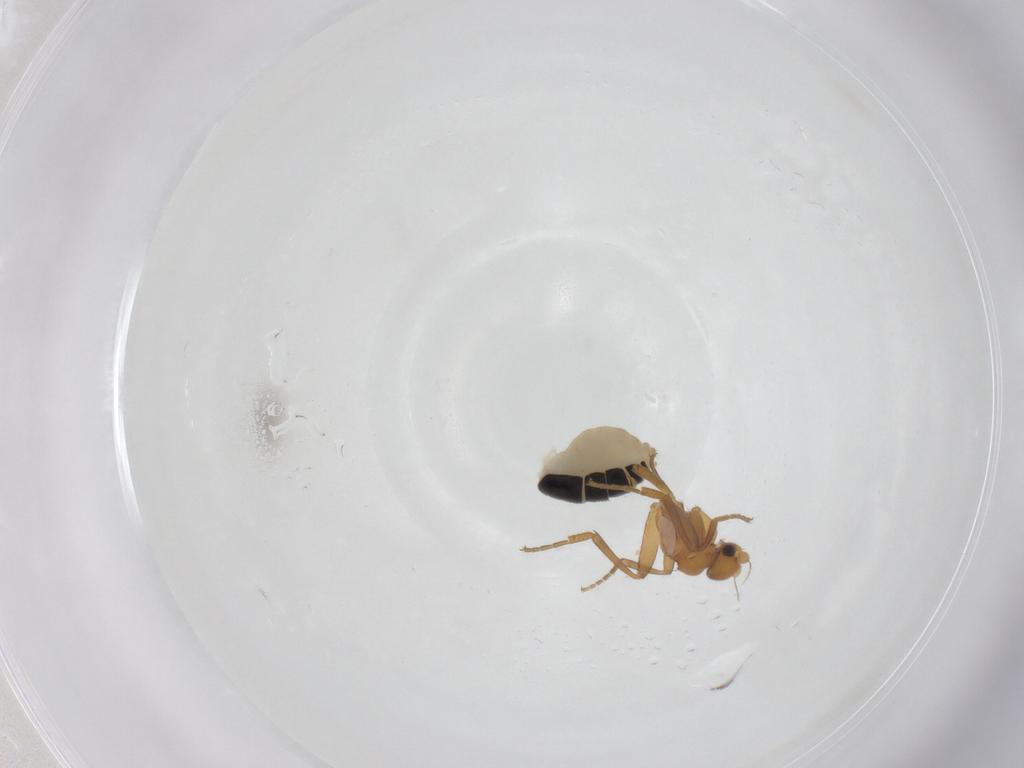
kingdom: Animalia
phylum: Arthropoda
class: Insecta
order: Diptera
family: Phoridae
